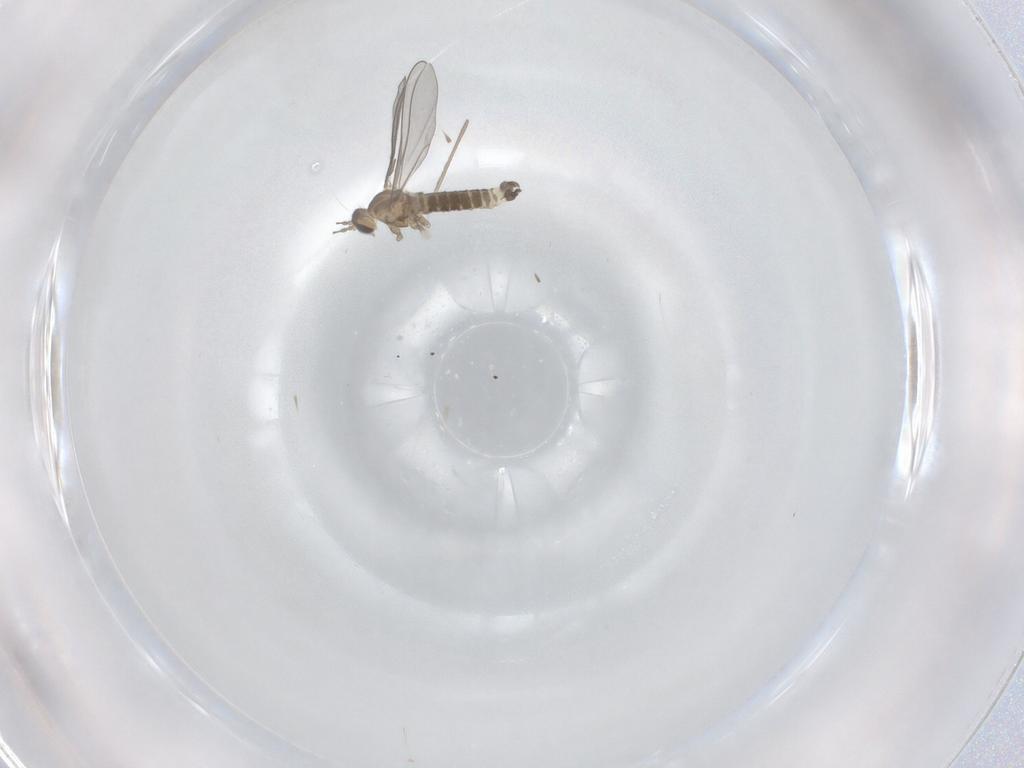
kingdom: Animalia
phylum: Arthropoda
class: Insecta
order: Diptera
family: Cecidomyiidae
